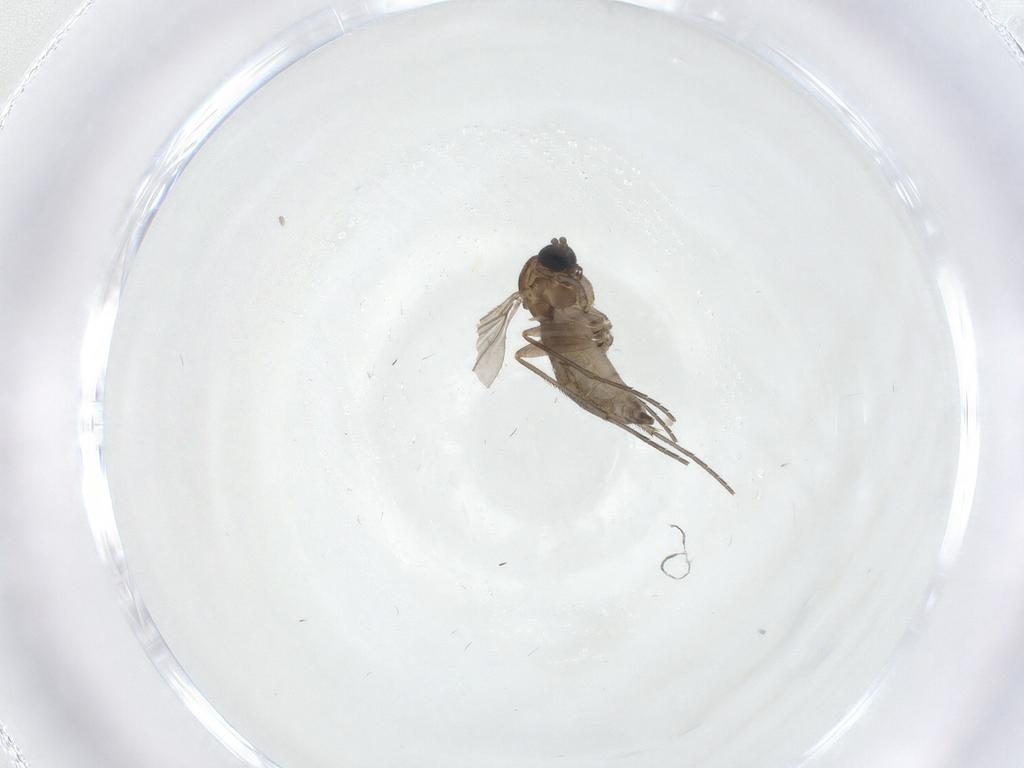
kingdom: Animalia
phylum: Arthropoda
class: Insecta
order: Diptera
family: Sciaridae
